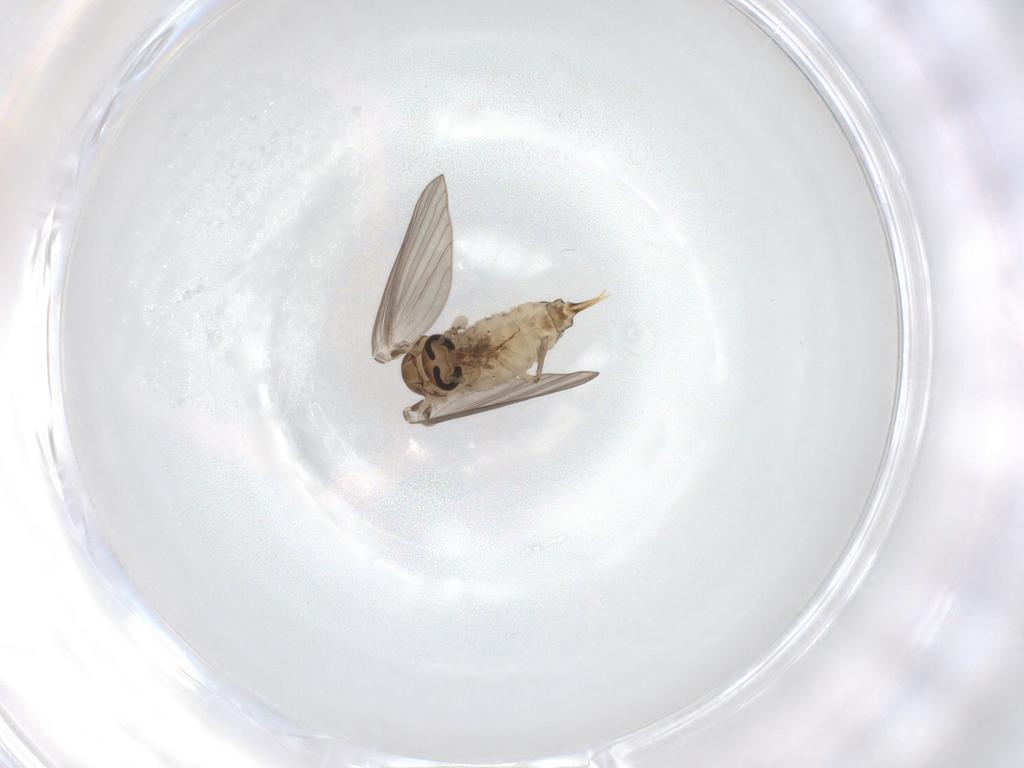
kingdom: Animalia
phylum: Arthropoda
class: Insecta
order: Diptera
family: Psychodidae
